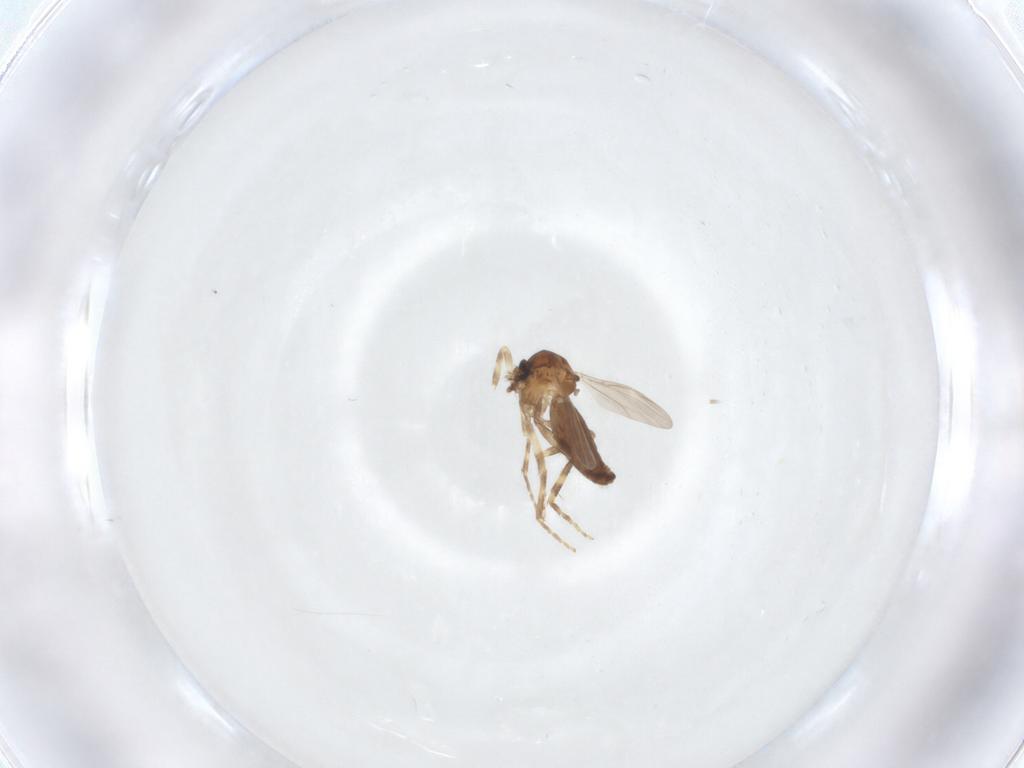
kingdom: Animalia
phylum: Arthropoda
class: Insecta
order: Diptera
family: Ceratopogonidae
